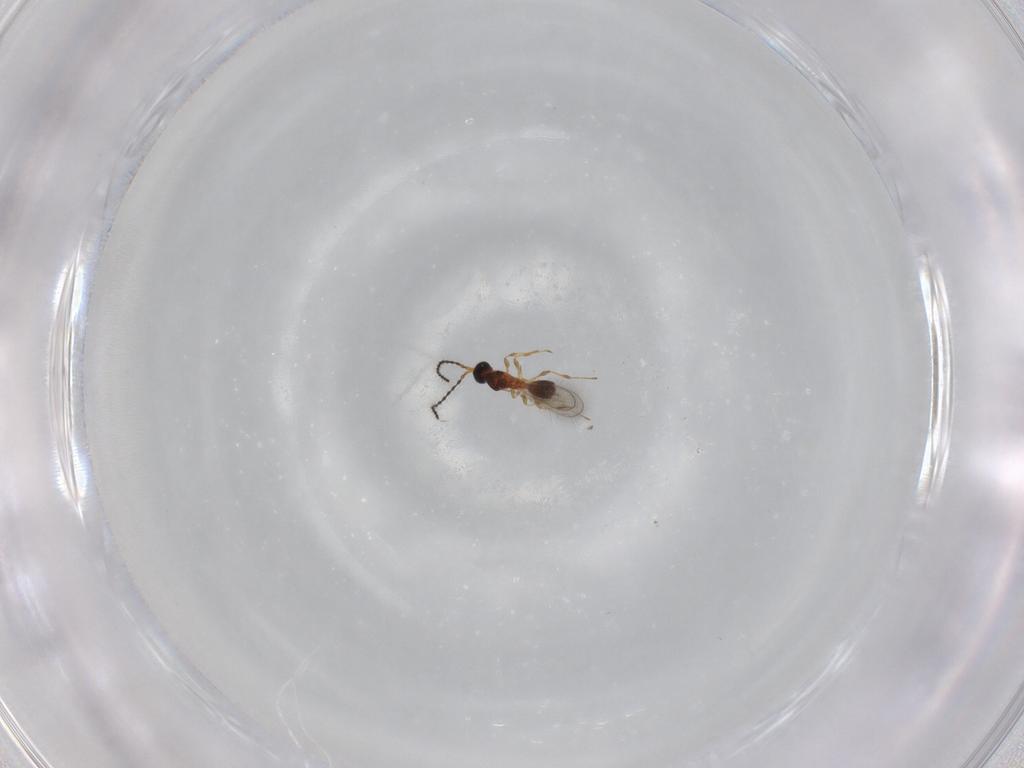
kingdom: Animalia
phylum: Arthropoda
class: Insecta
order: Hymenoptera
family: Diapriidae
